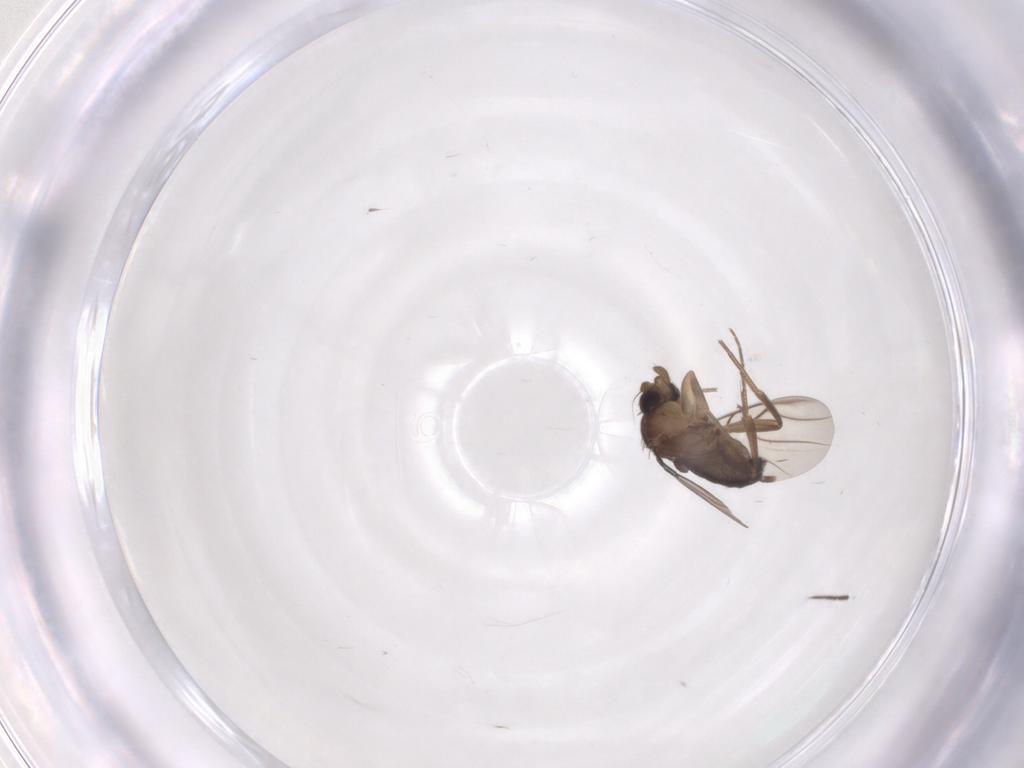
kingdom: Animalia
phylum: Arthropoda
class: Insecta
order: Diptera
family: Phoridae
